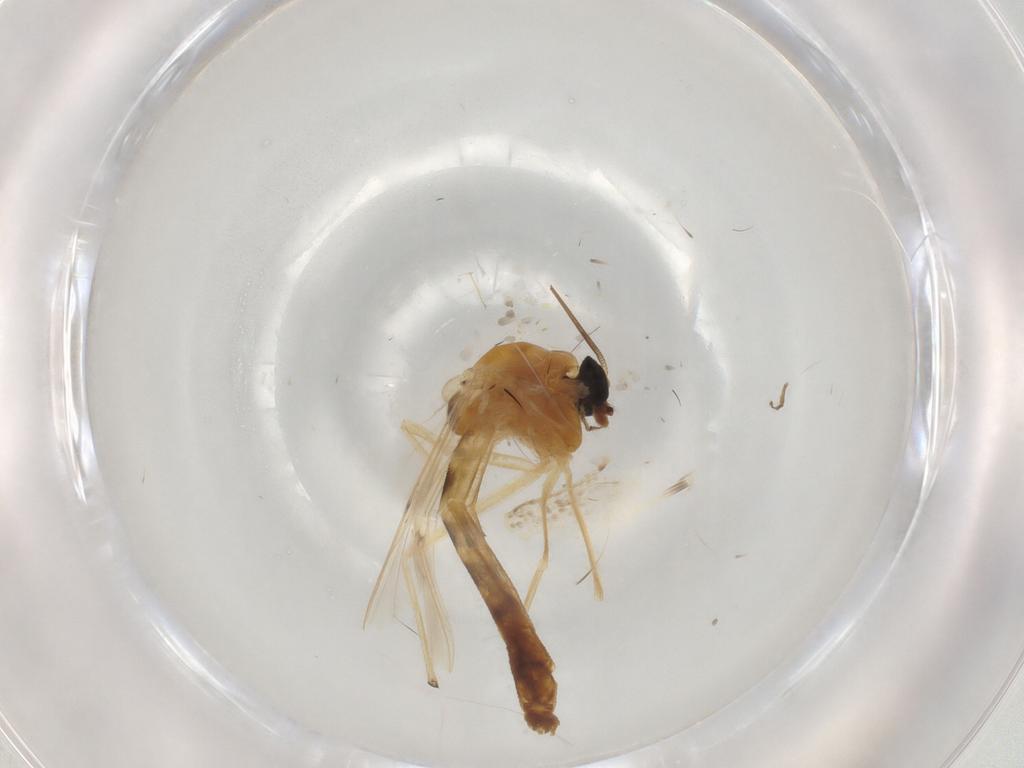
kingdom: Animalia
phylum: Arthropoda
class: Insecta
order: Diptera
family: Chironomidae
